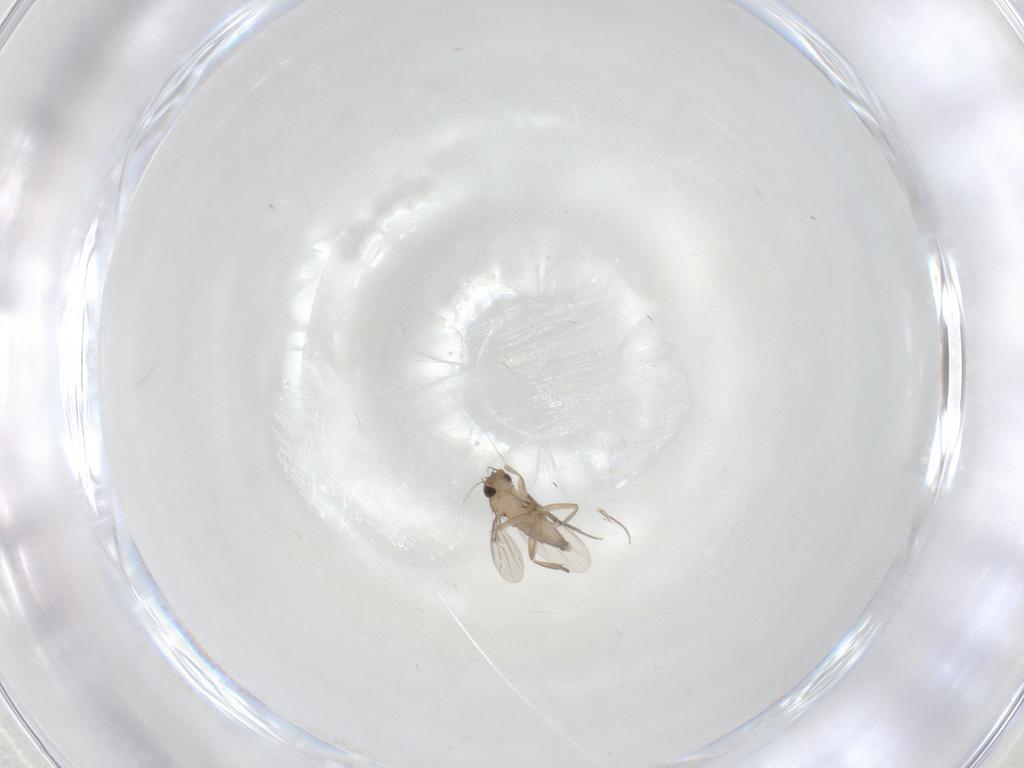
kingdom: Animalia
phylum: Arthropoda
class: Insecta
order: Diptera
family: Phoridae
